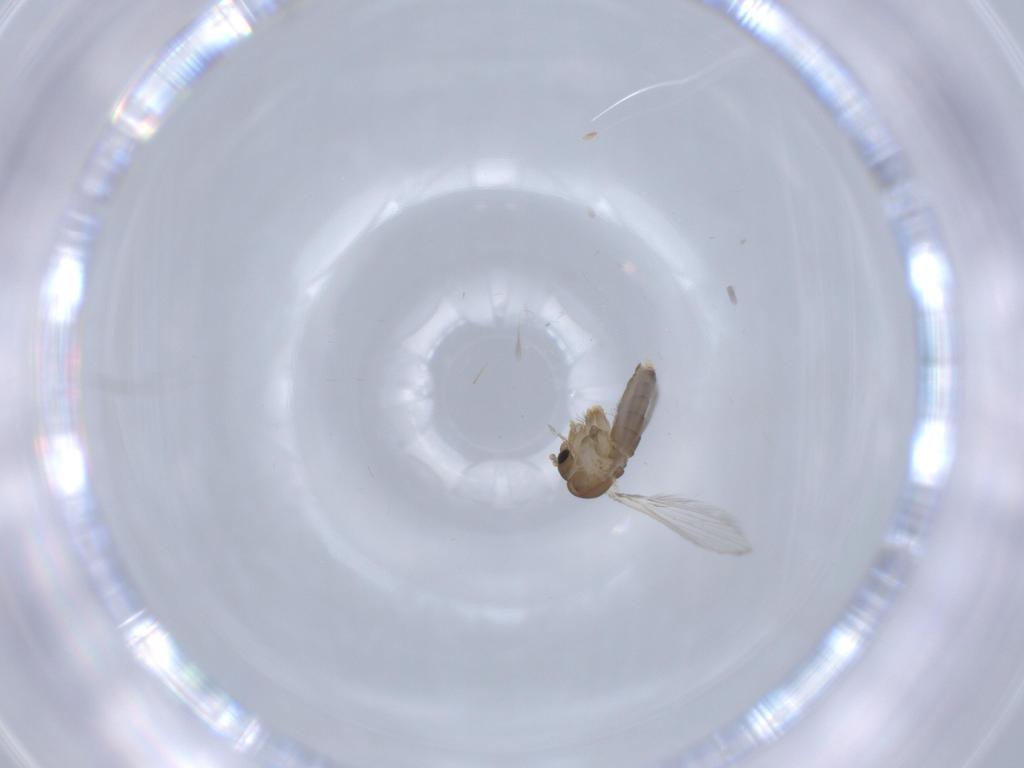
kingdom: Animalia
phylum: Arthropoda
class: Insecta
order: Diptera
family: Psychodidae
